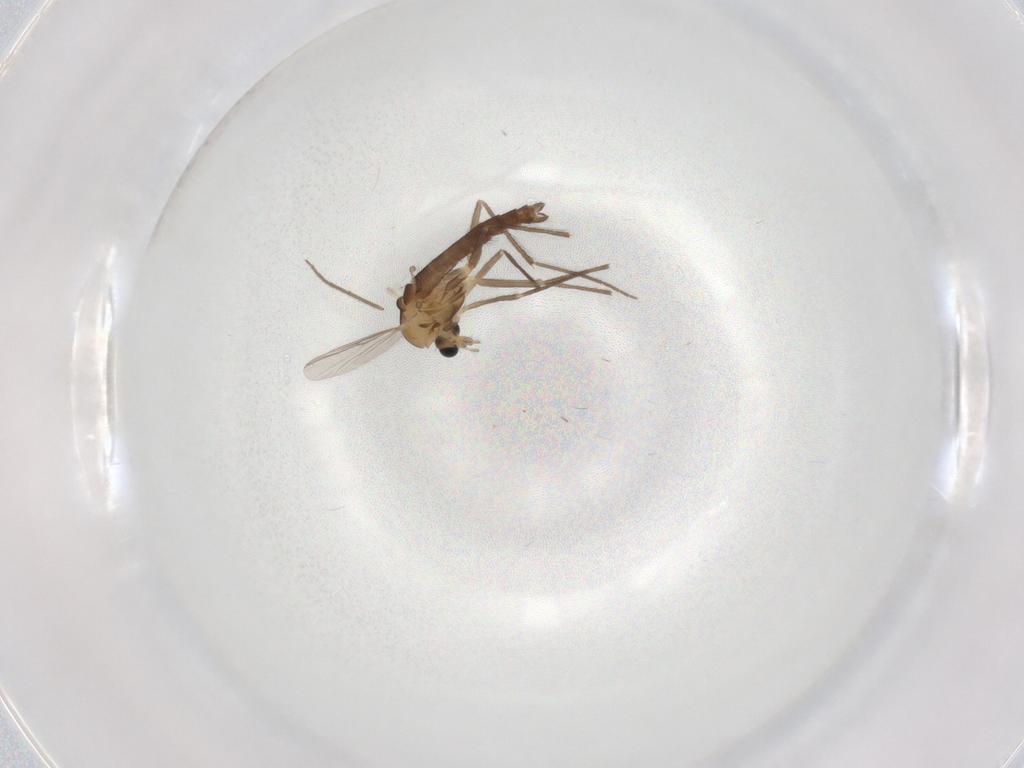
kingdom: Animalia
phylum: Arthropoda
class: Insecta
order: Diptera
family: Chironomidae
